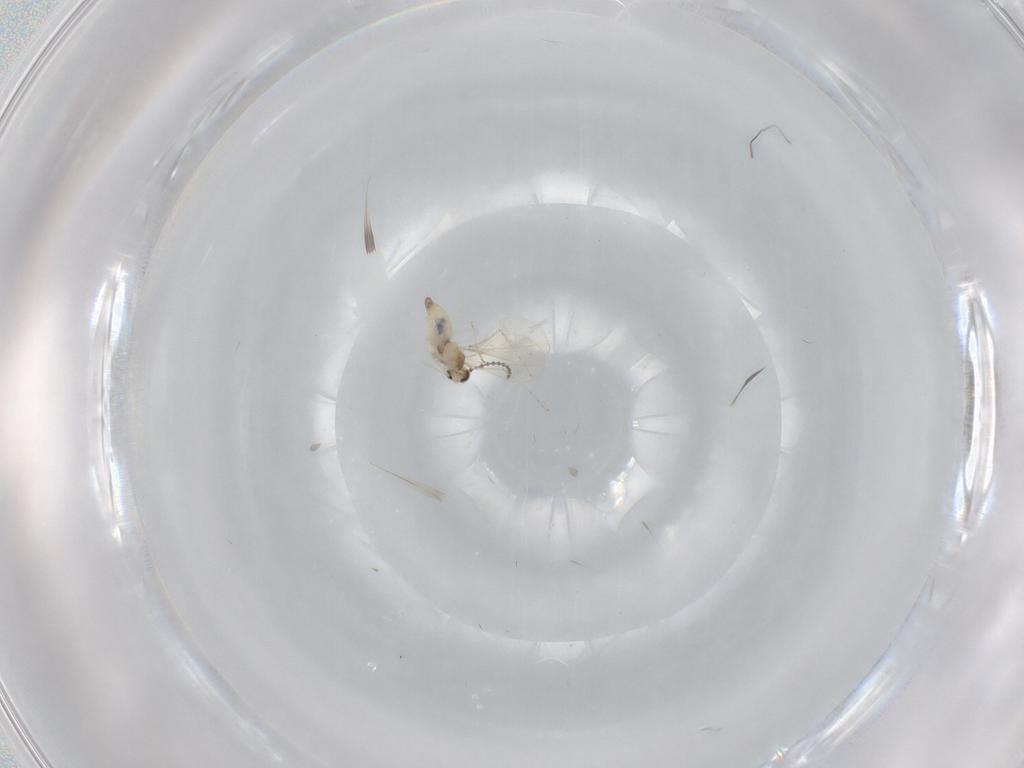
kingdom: Animalia
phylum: Arthropoda
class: Insecta
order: Diptera
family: Cecidomyiidae
